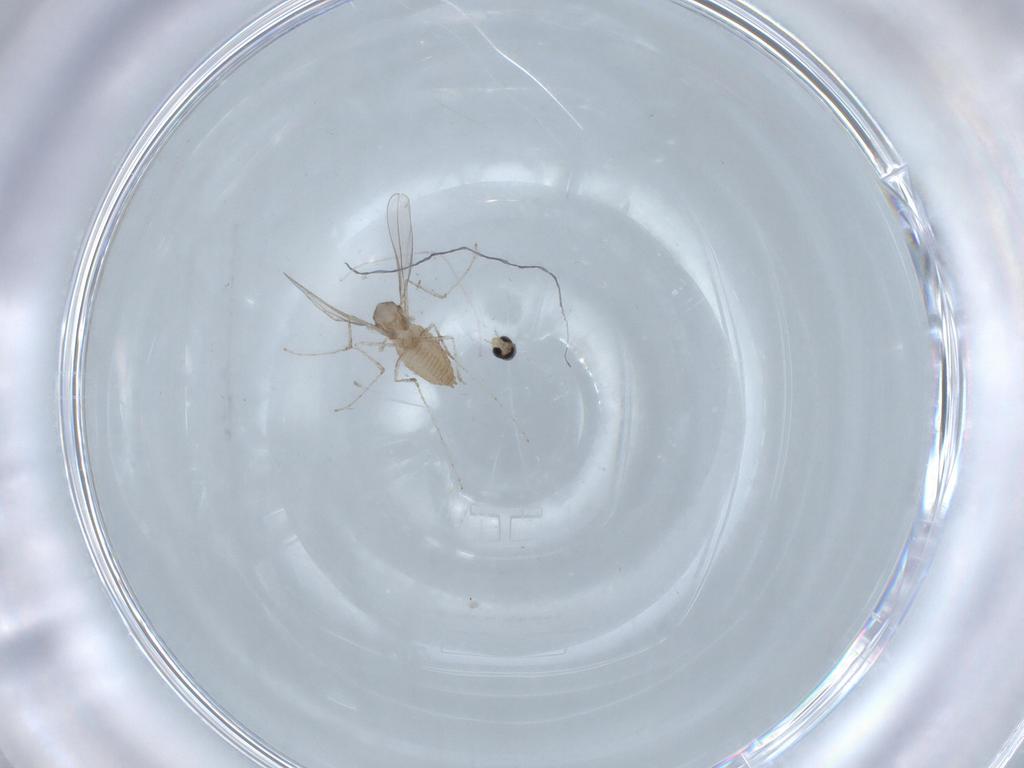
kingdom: Animalia
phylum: Arthropoda
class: Insecta
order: Diptera
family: Cecidomyiidae
